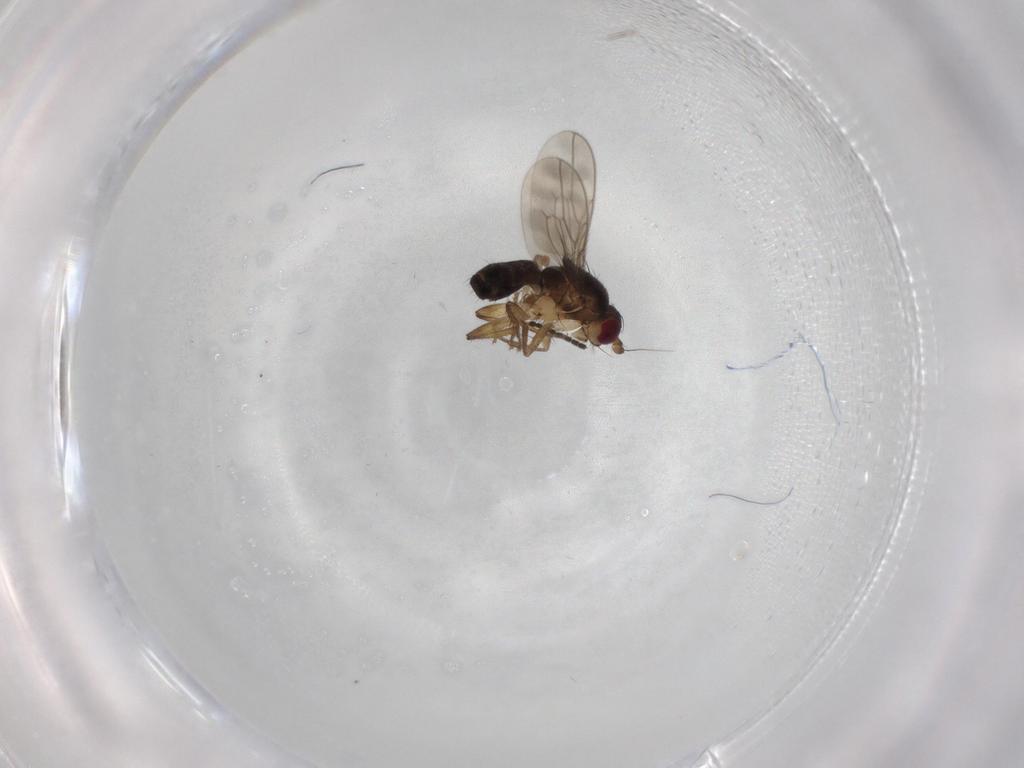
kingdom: Animalia
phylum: Arthropoda
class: Insecta
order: Diptera
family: Sphaeroceridae
